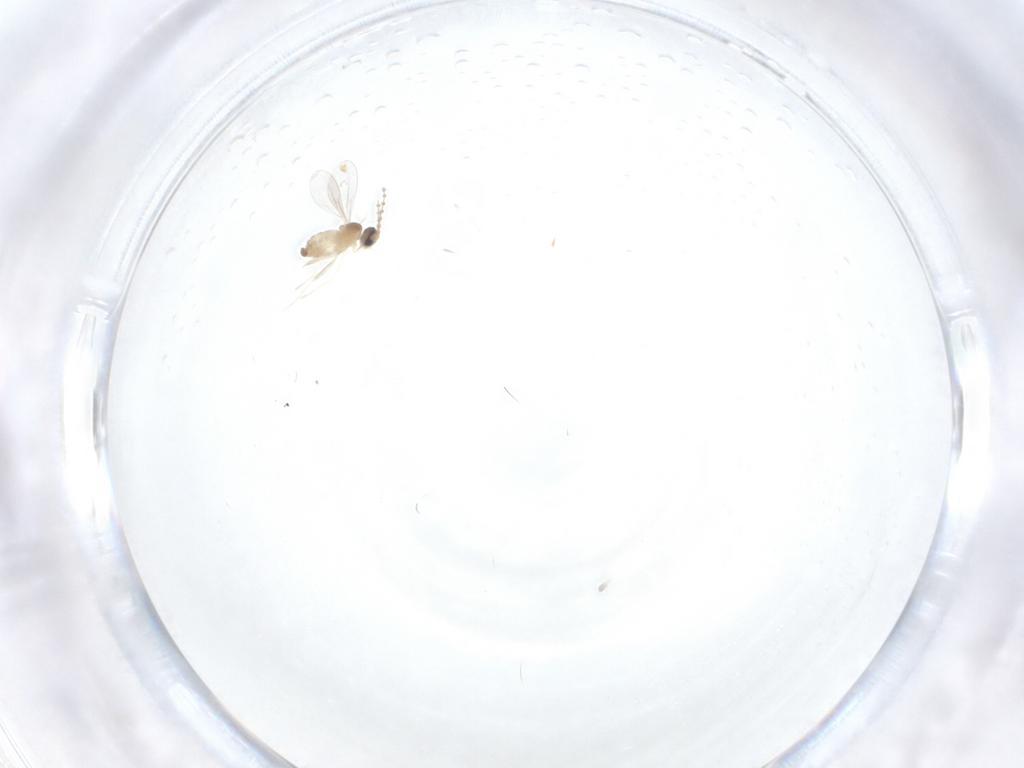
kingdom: Animalia
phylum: Arthropoda
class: Insecta
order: Diptera
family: Cecidomyiidae
